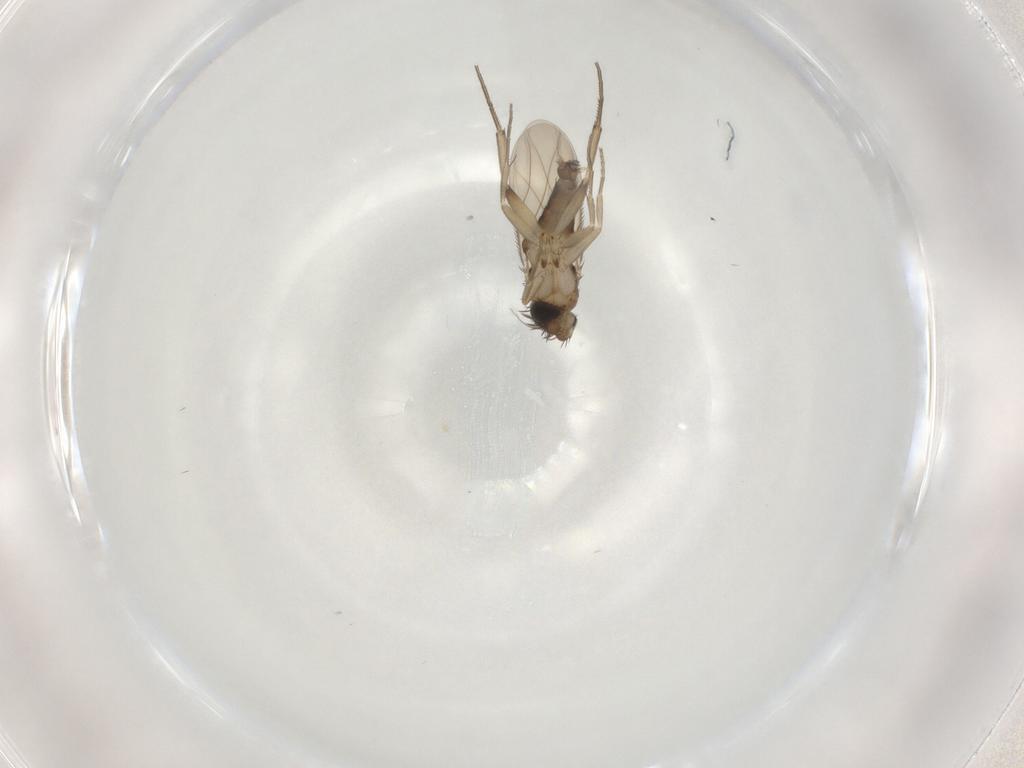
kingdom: Animalia
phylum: Arthropoda
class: Insecta
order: Diptera
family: Phoridae
